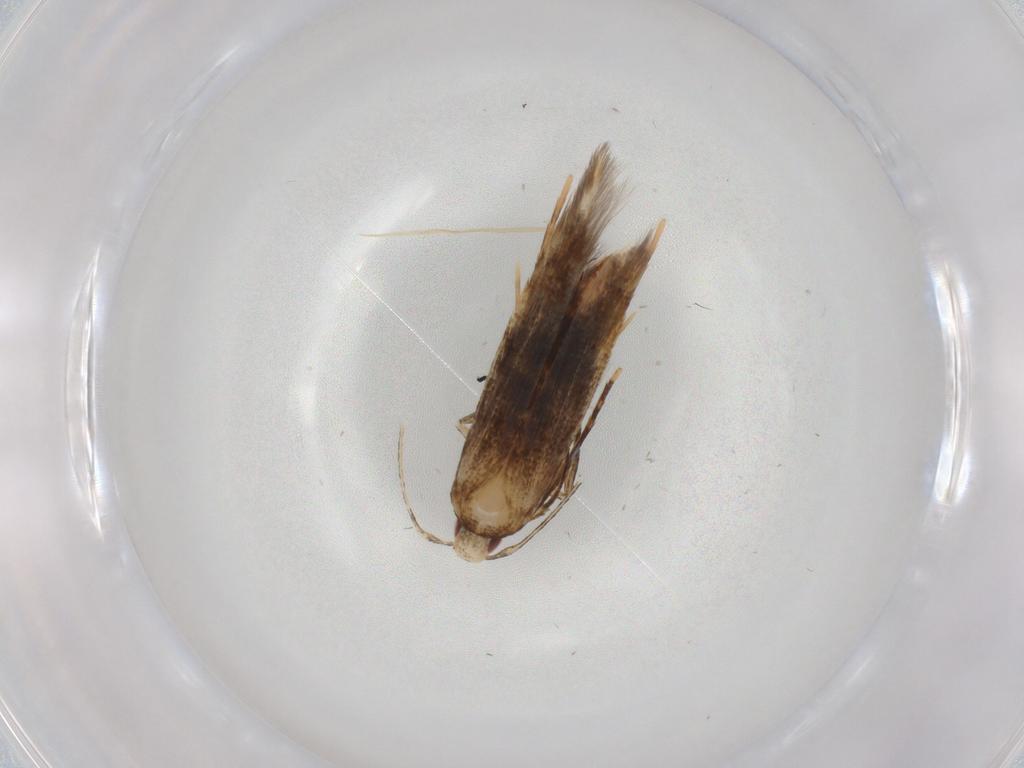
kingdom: Animalia
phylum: Arthropoda
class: Insecta
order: Lepidoptera
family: Gelechiidae
